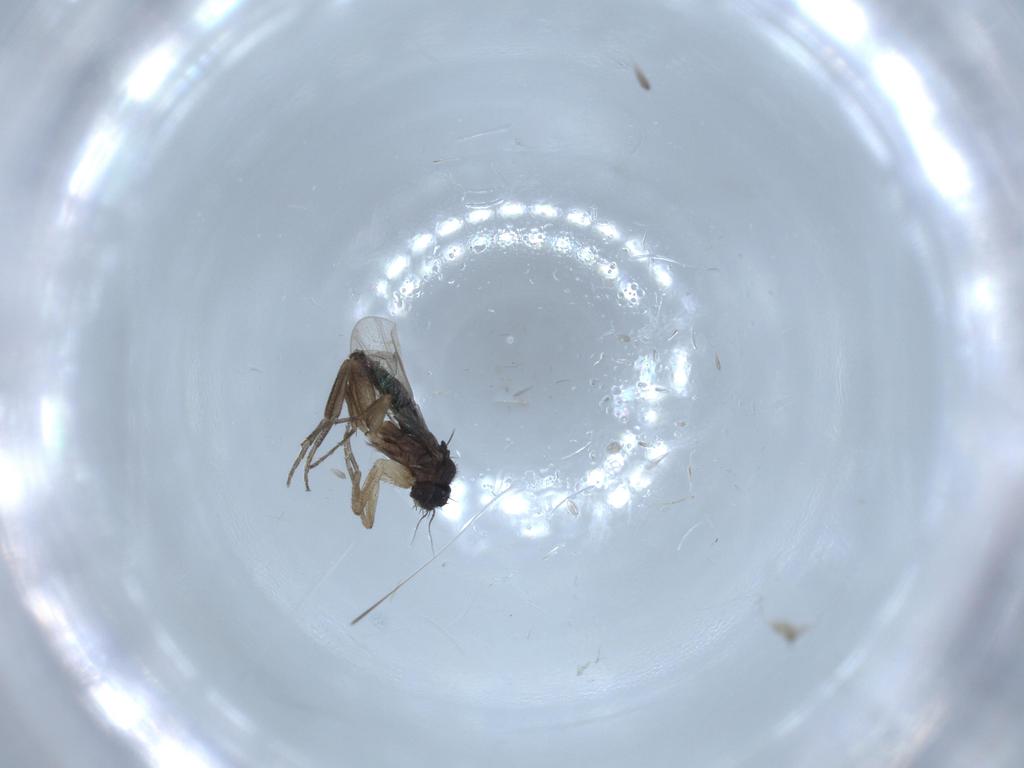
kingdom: Animalia
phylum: Arthropoda
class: Insecta
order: Diptera
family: Phoridae
